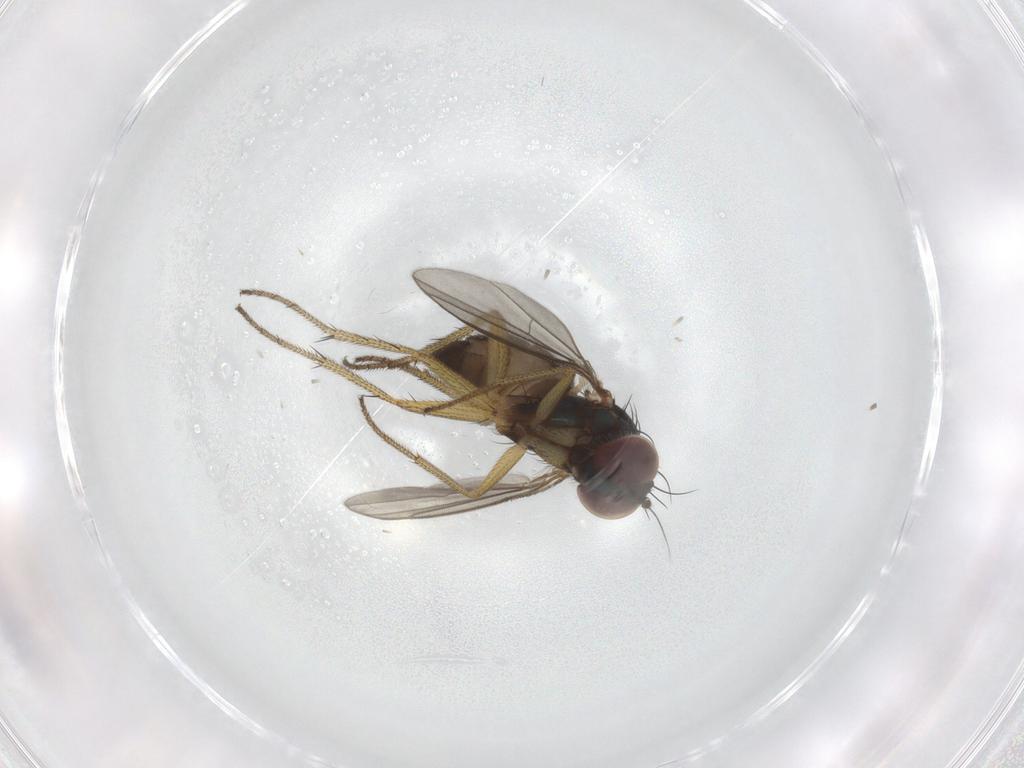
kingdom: Animalia
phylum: Arthropoda
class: Insecta
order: Diptera
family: Dolichopodidae
